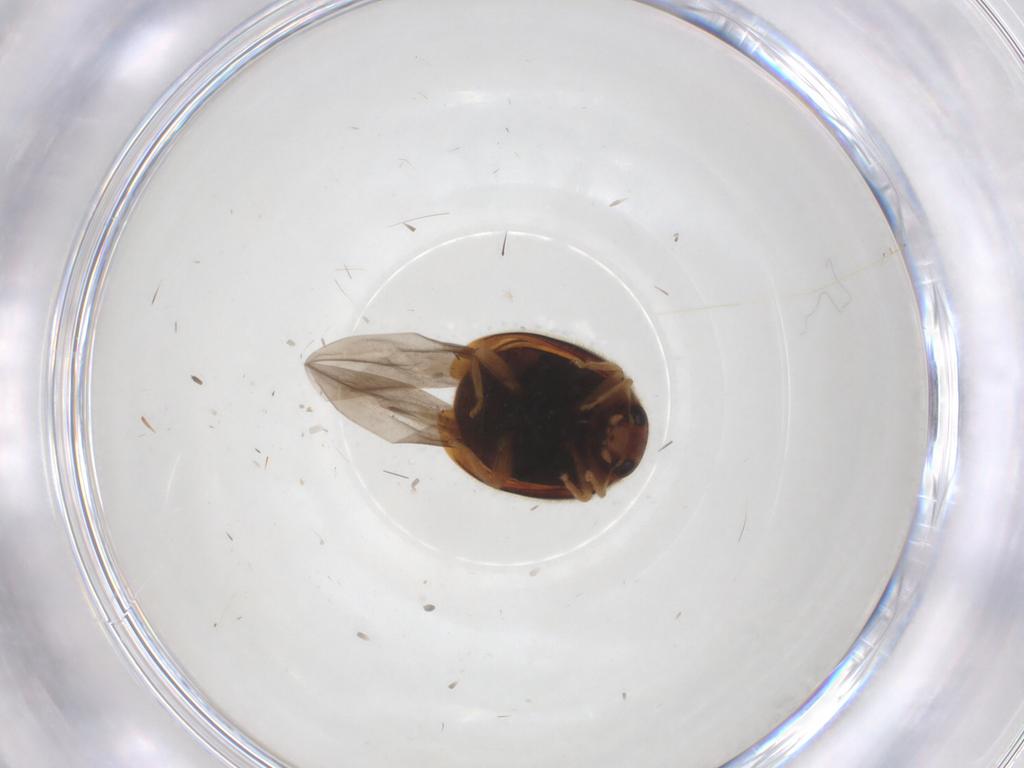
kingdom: Animalia
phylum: Arthropoda
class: Insecta
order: Coleoptera
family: Coccinellidae
